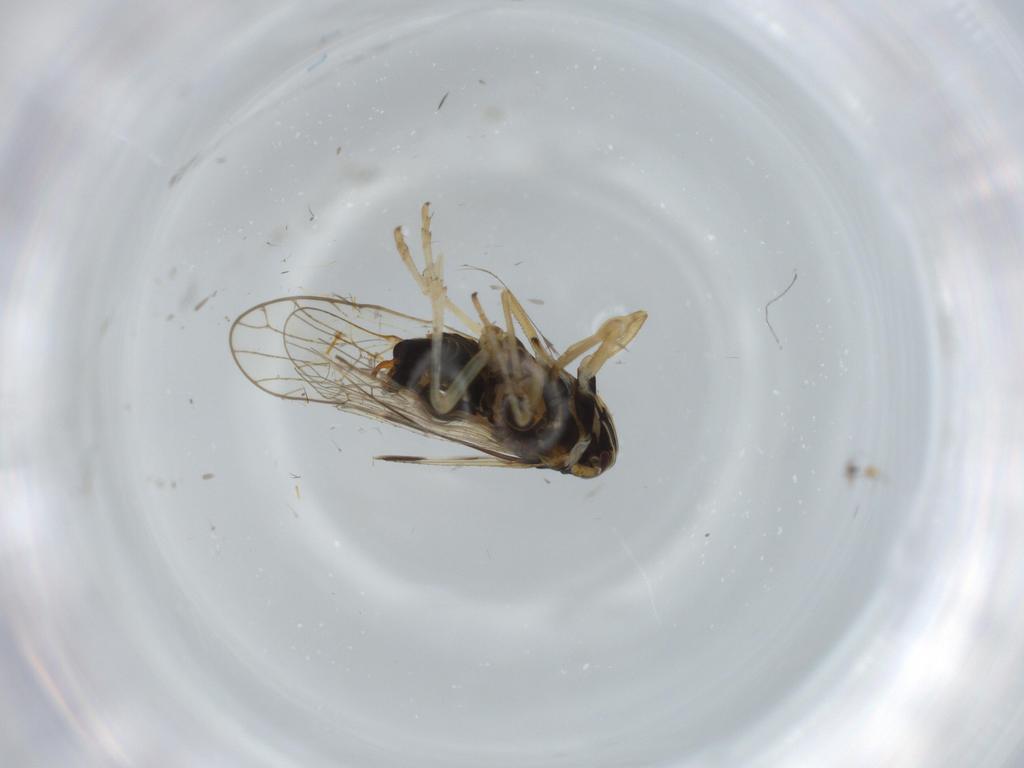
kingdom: Animalia
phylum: Arthropoda
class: Insecta
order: Hemiptera
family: Cicadellidae
